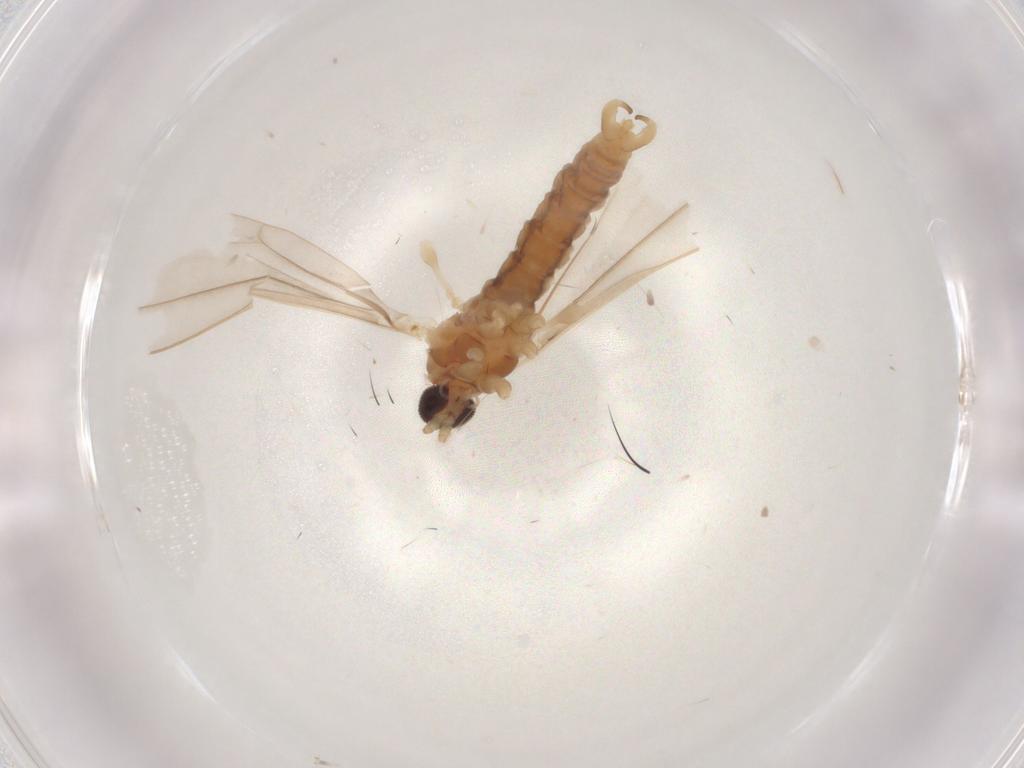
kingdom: Animalia
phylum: Arthropoda
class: Insecta
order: Diptera
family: Cecidomyiidae
